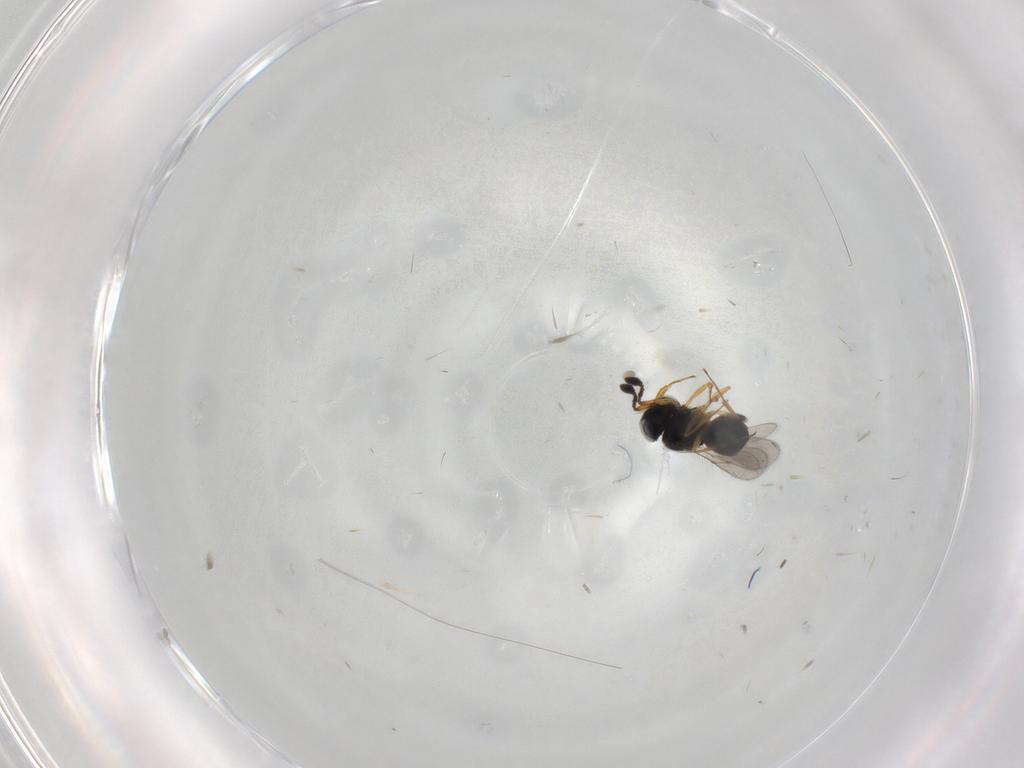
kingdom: Animalia
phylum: Arthropoda
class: Insecta
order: Hymenoptera
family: Scelionidae
